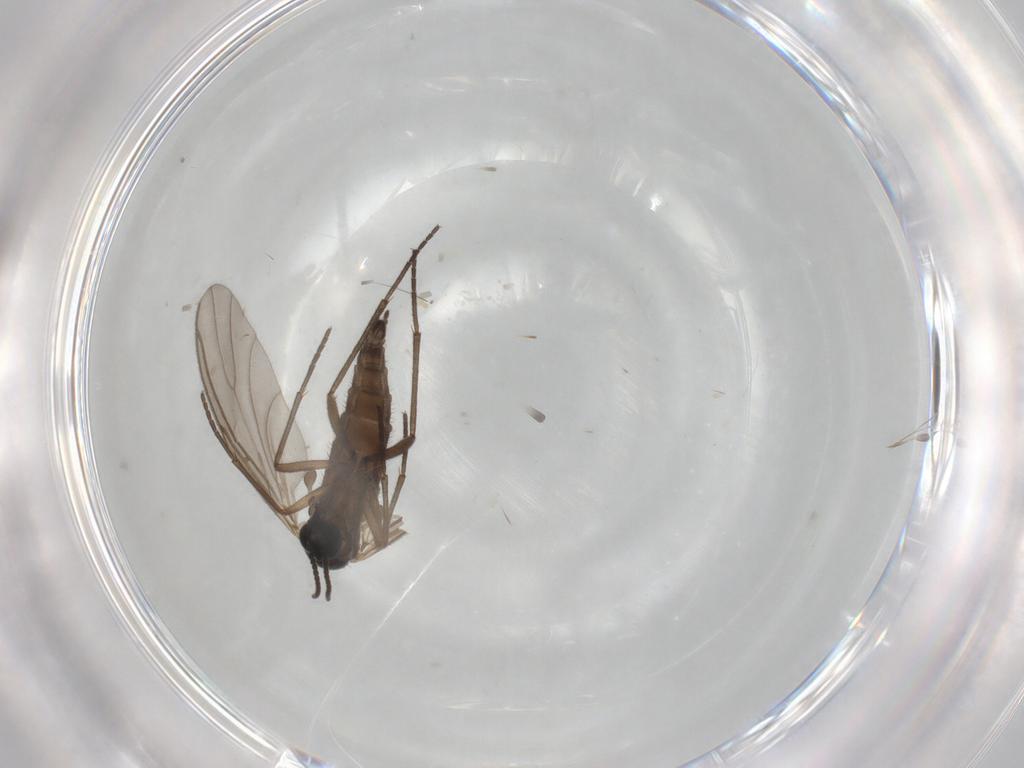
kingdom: Animalia
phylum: Arthropoda
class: Insecta
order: Diptera
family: Sciaridae
